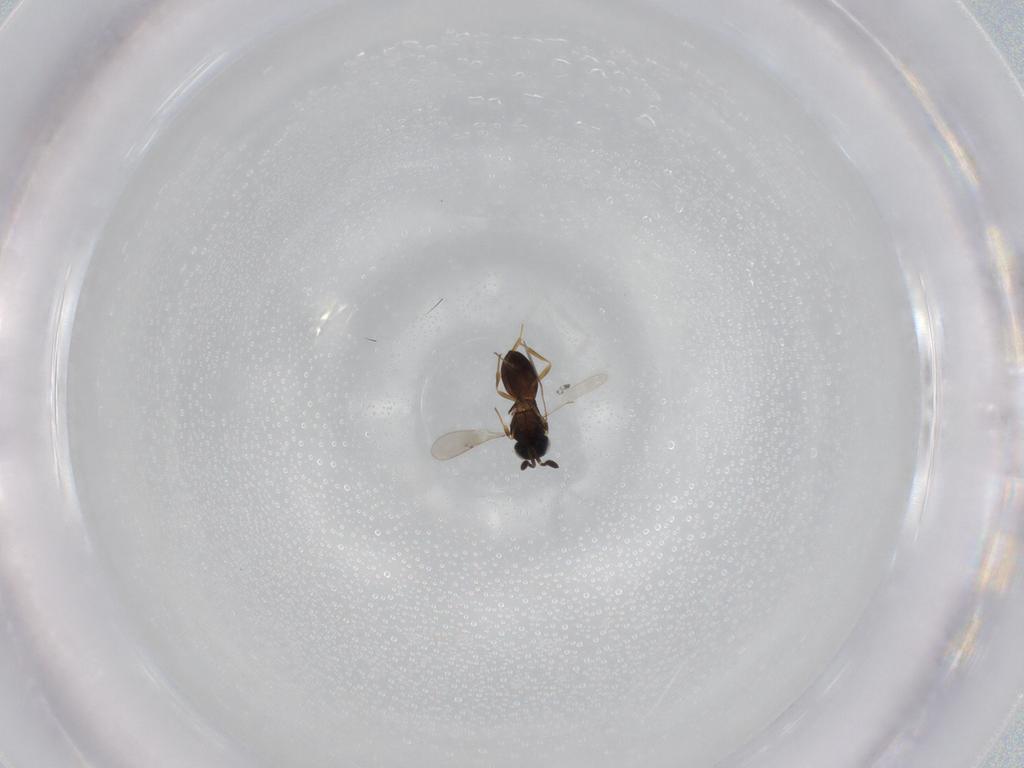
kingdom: Animalia
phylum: Arthropoda
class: Insecta
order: Hymenoptera
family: Scelionidae
